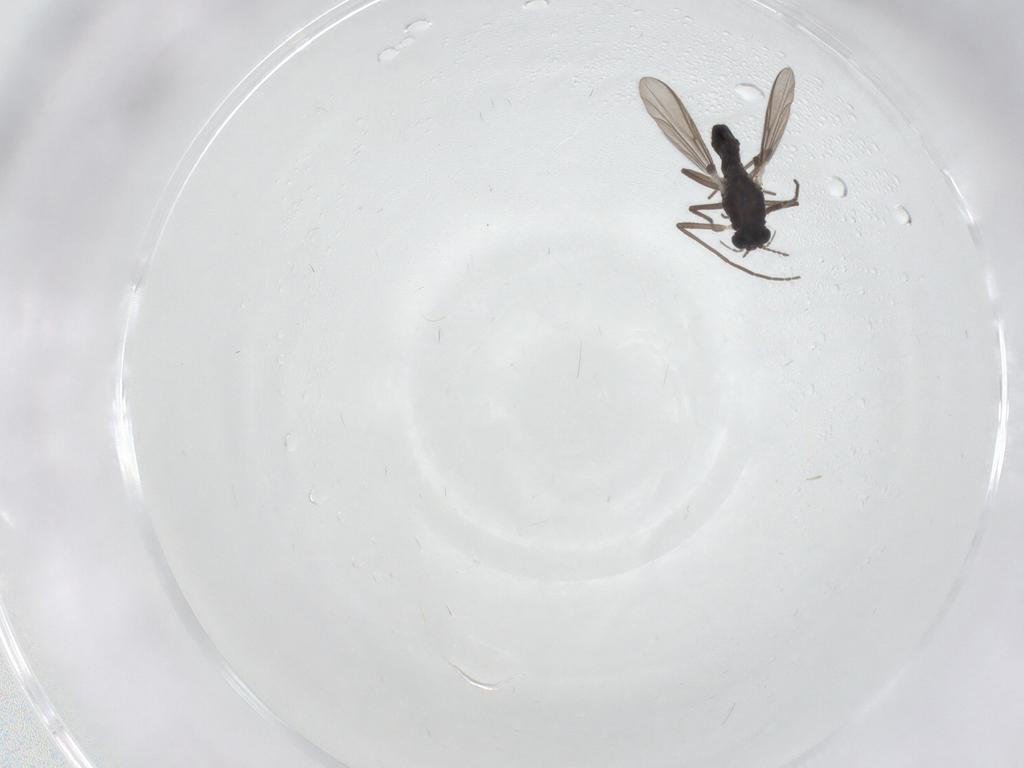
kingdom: Animalia
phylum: Arthropoda
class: Insecta
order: Diptera
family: Chironomidae
